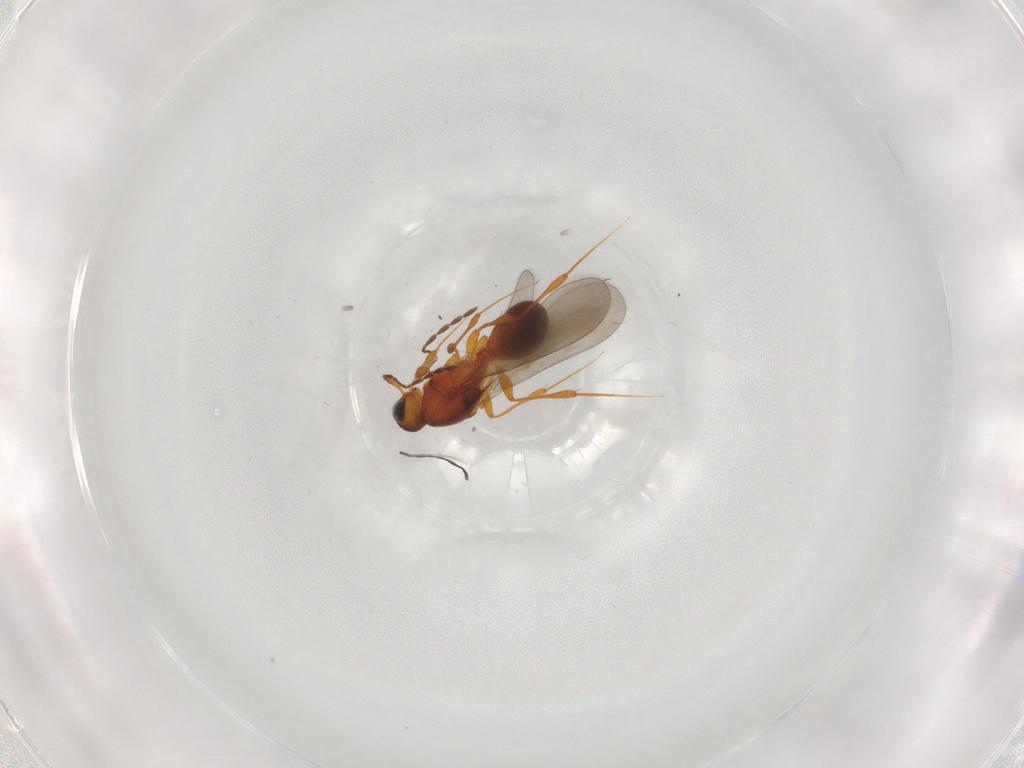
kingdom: Animalia
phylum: Arthropoda
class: Insecta
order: Hymenoptera
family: Platygastridae
